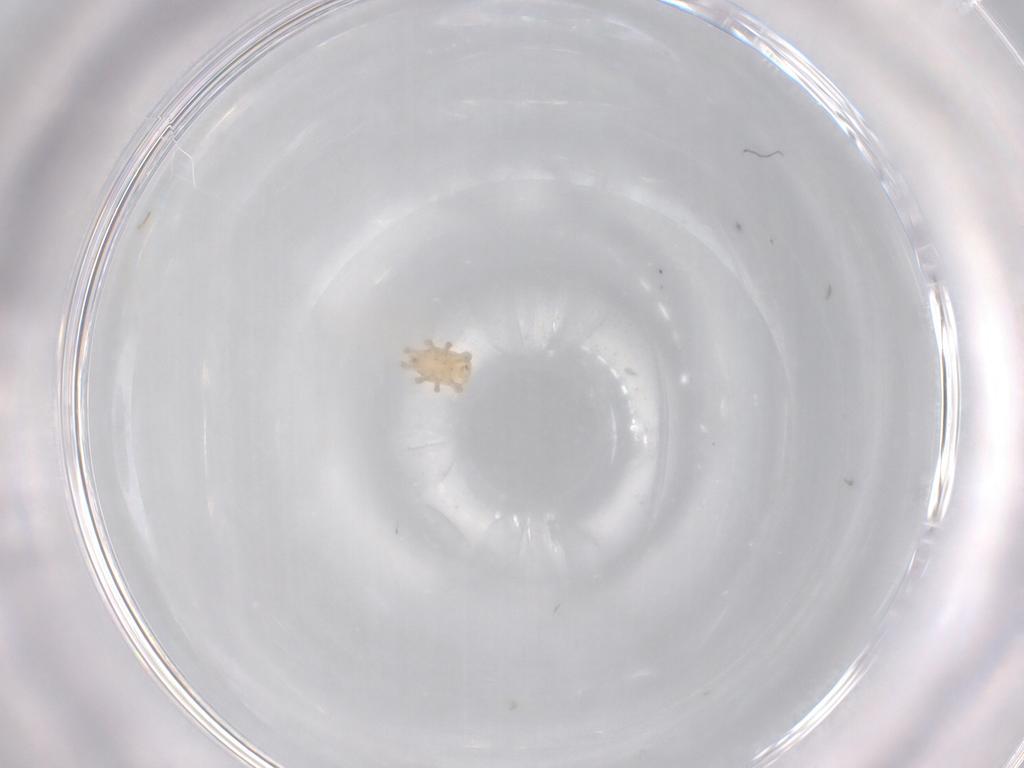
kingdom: Animalia
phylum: Arthropoda
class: Arachnida
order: Mesostigmata
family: Halolaelapidae
